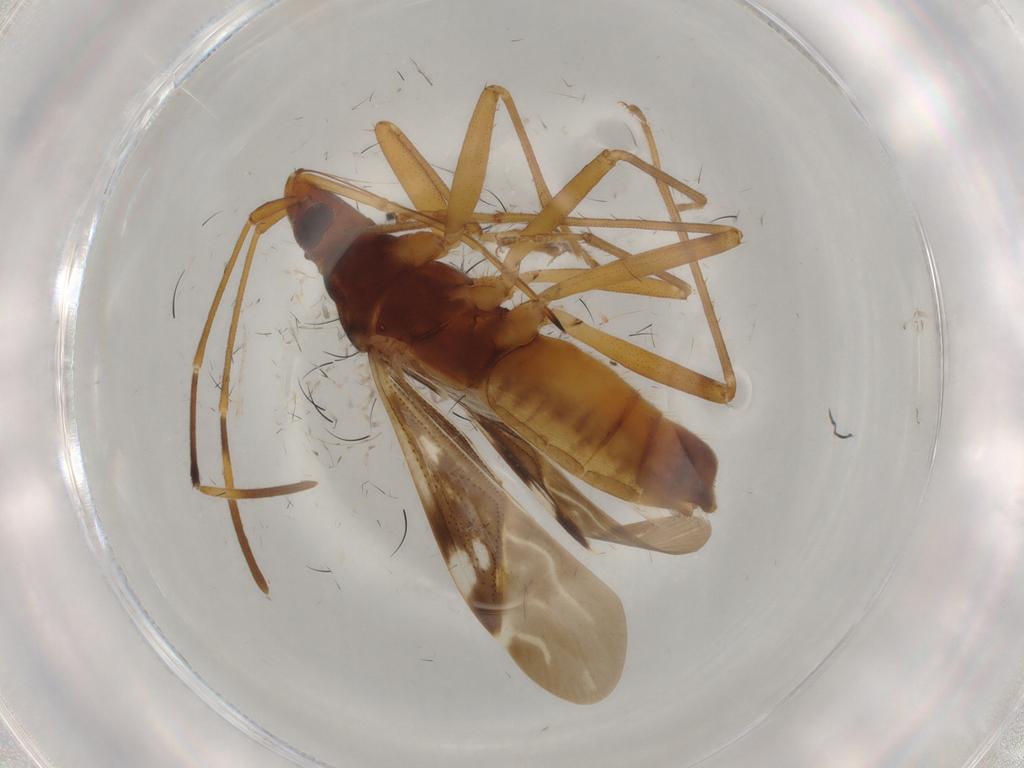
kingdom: Animalia
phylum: Arthropoda
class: Insecta
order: Hemiptera
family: Rhyparochromidae
